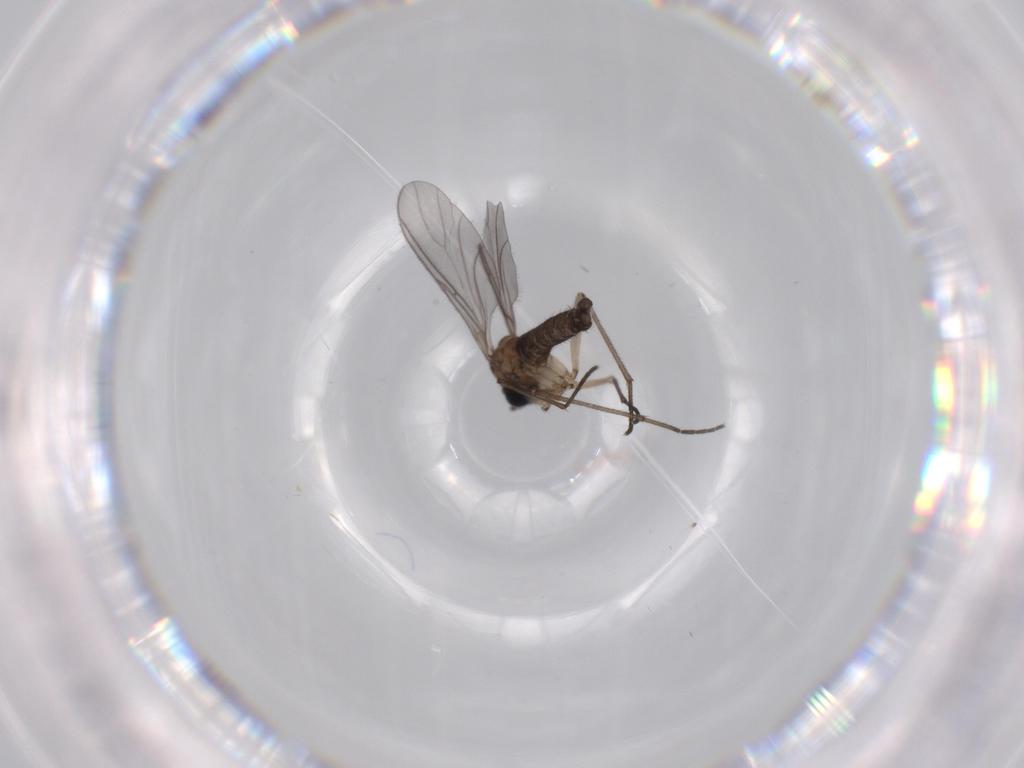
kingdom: Animalia
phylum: Arthropoda
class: Insecta
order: Diptera
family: Sciaridae
